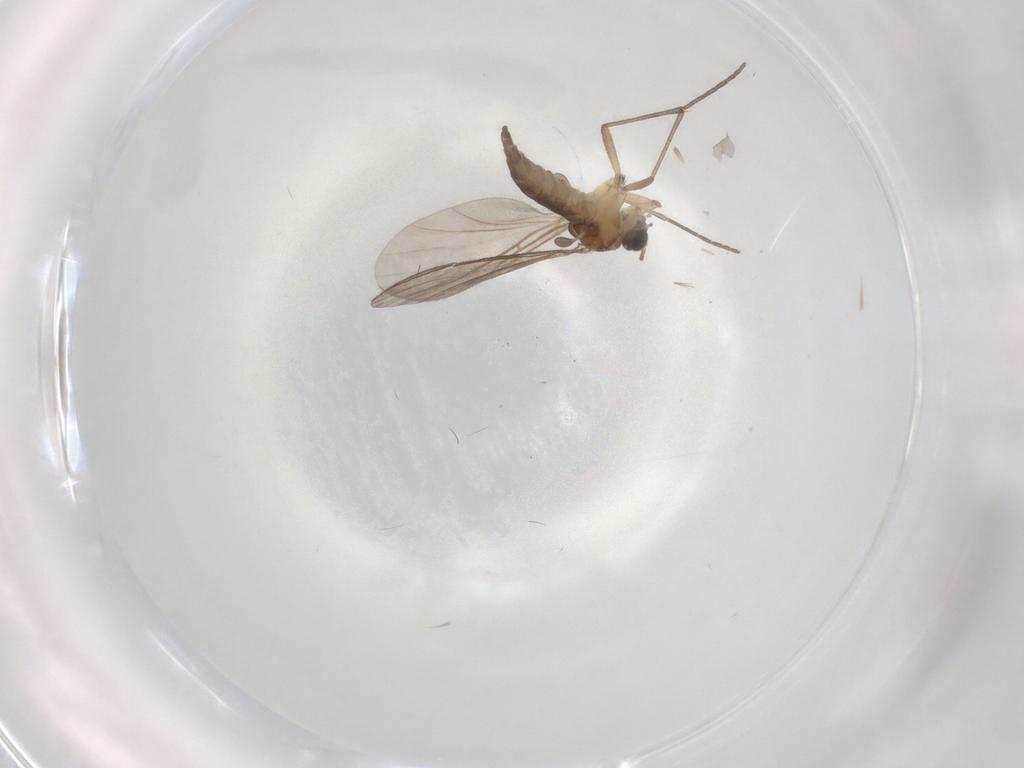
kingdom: Animalia
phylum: Arthropoda
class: Insecta
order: Diptera
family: Sciaridae
